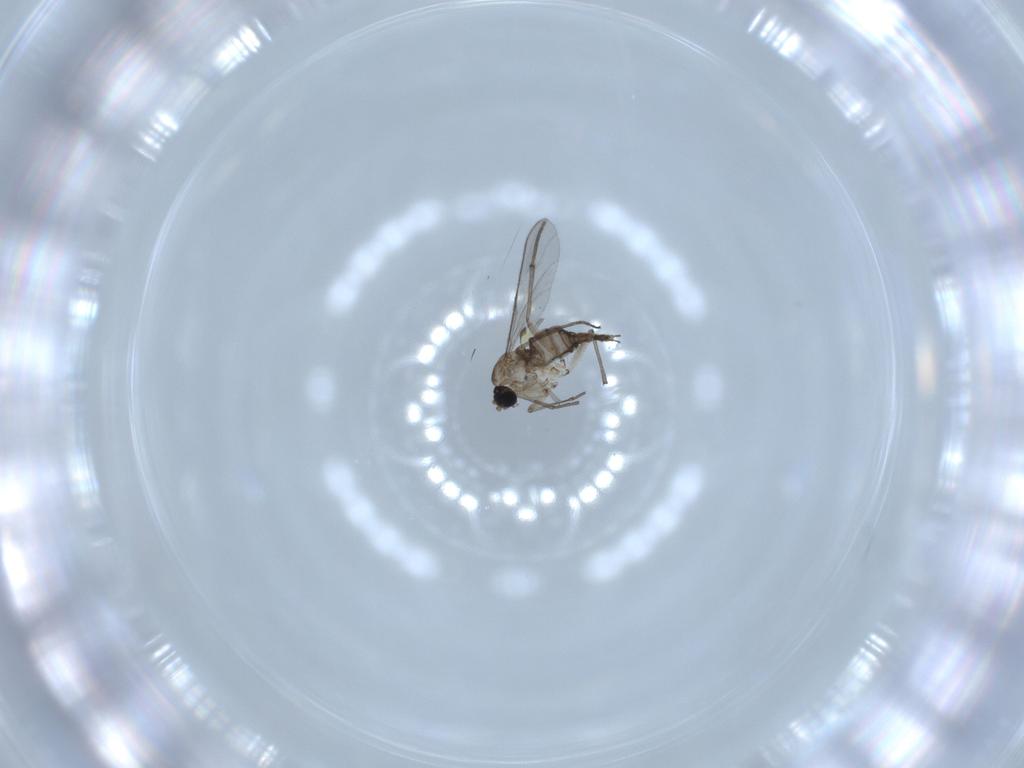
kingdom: Animalia
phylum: Arthropoda
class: Insecta
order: Diptera
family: Sciaridae
